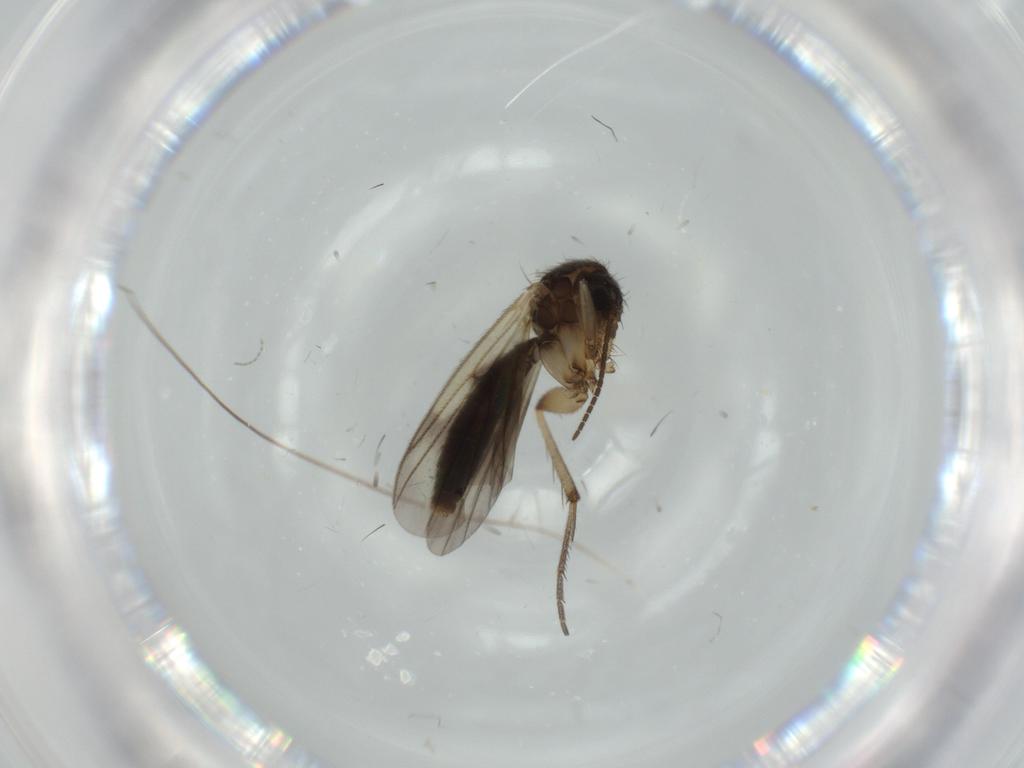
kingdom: Animalia
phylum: Arthropoda
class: Insecta
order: Diptera
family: Sciaridae
